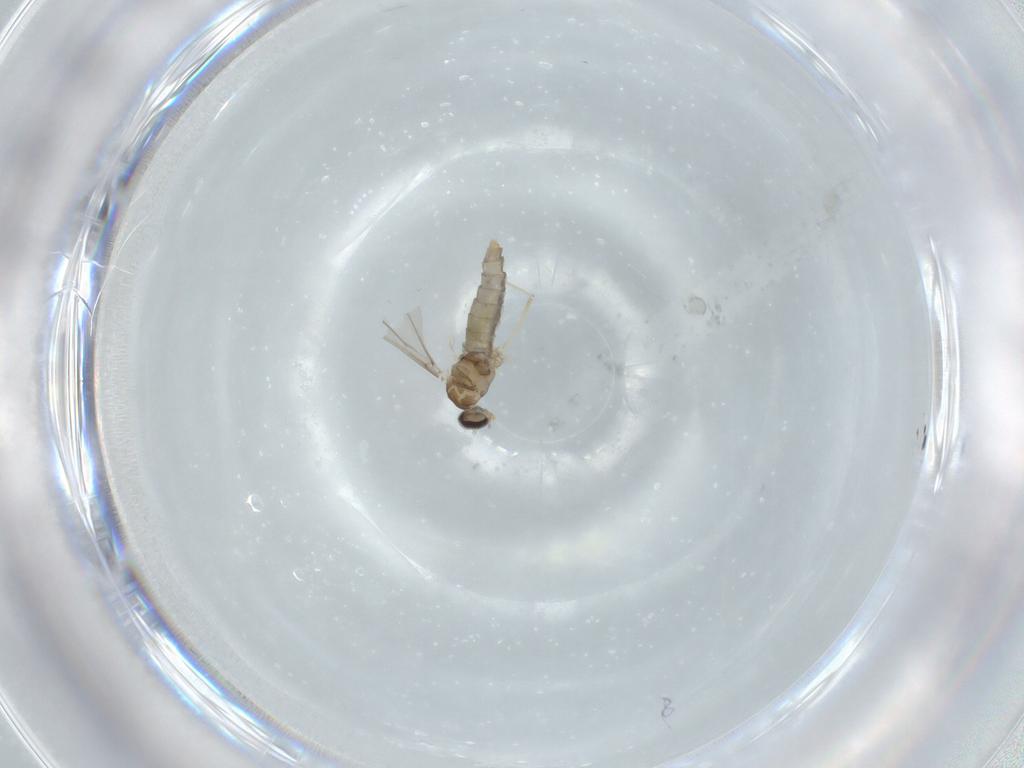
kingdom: Animalia
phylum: Arthropoda
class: Insecta
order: Diptera
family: Cecidomyiidae
